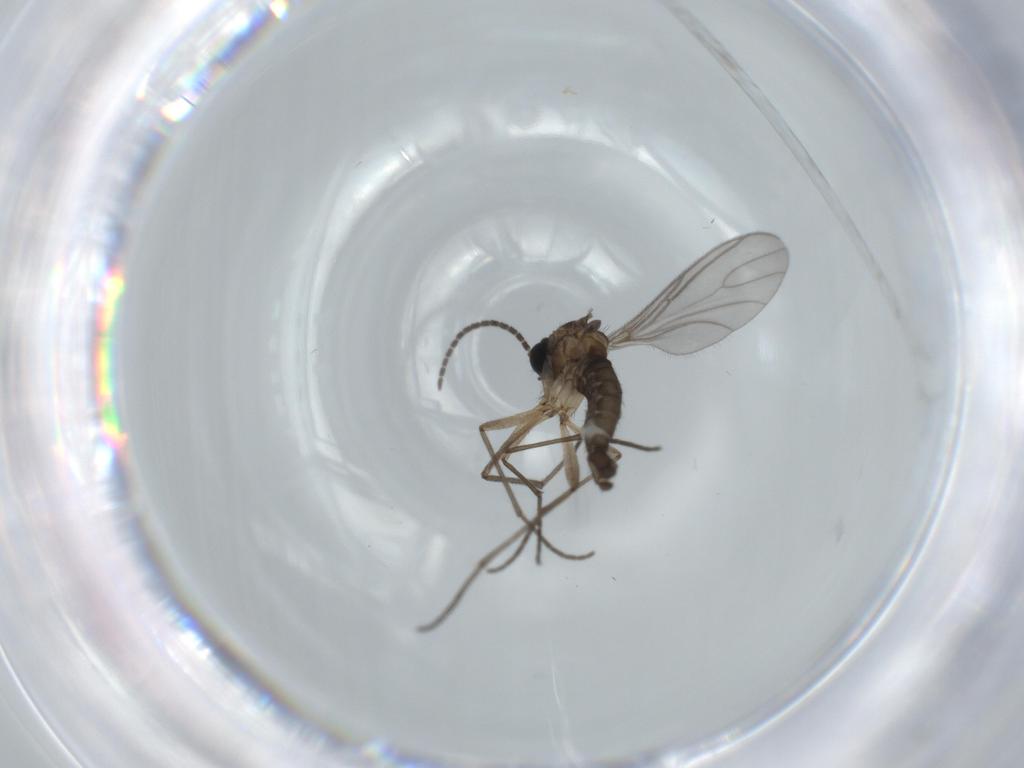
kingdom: Animalia
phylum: Arthropoda
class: Insecta
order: Diptera
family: Sciaridae
